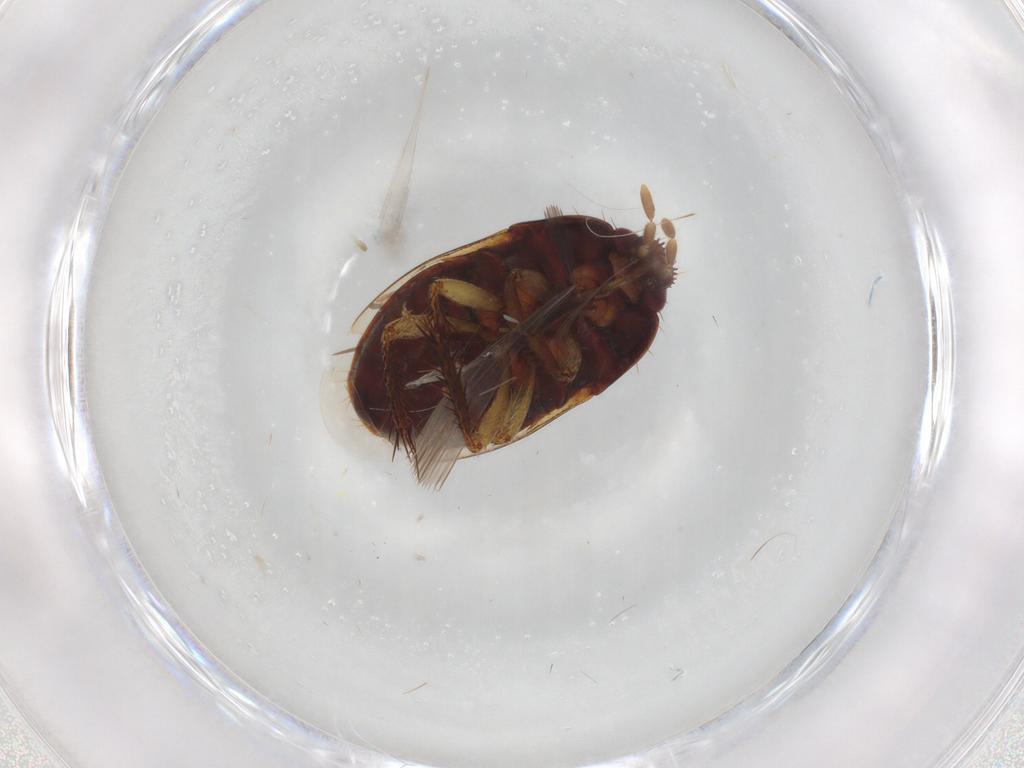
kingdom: Animalia
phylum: Arthropoda
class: Insecta
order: Hemiptera
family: Cydnidae
